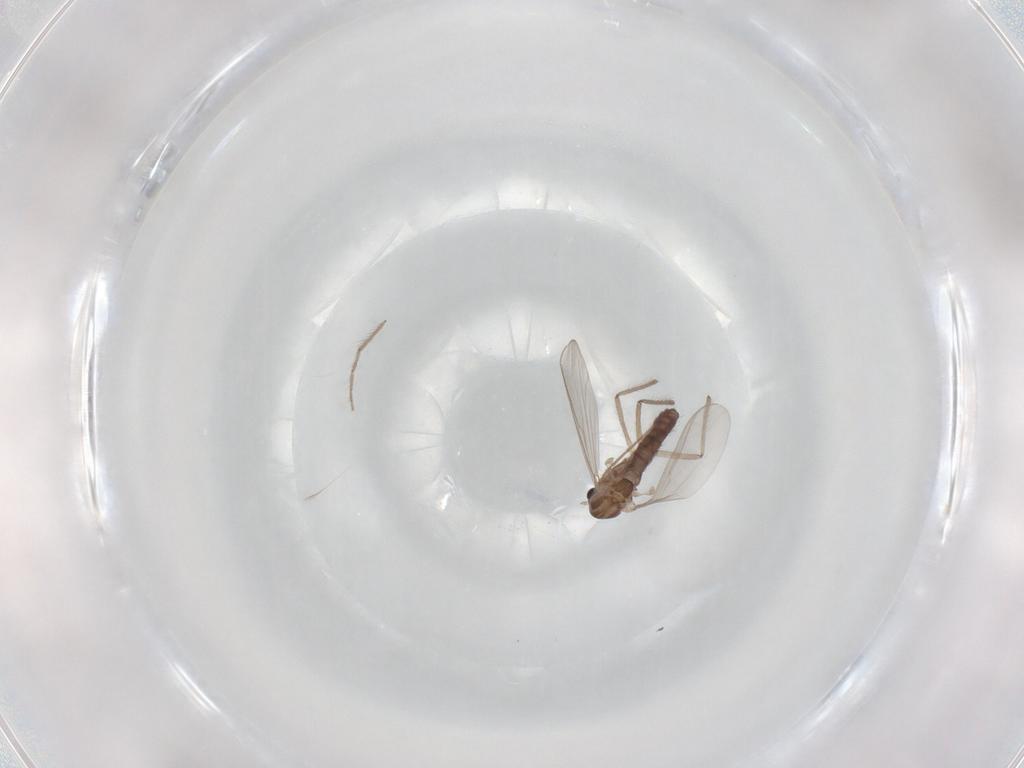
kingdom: Animalia
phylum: Arthropoda
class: Insecta
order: Diptera
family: Chironomidae
